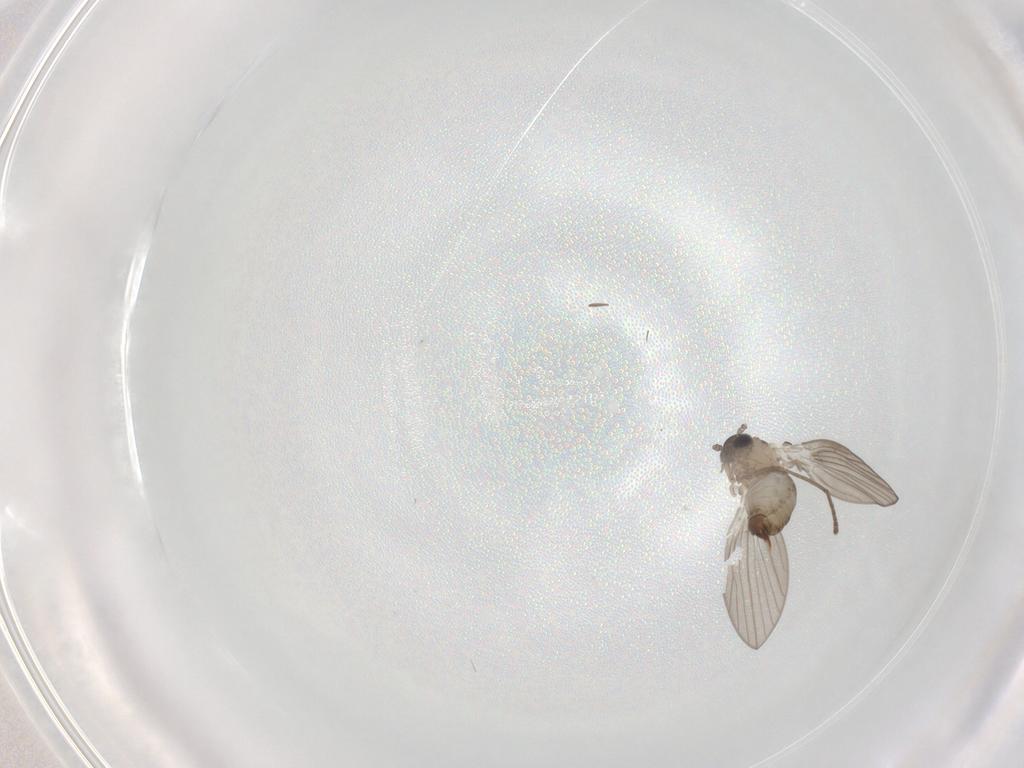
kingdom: Animalia
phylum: Arthropoda
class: Insecta
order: Diptera
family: Psychodidae
